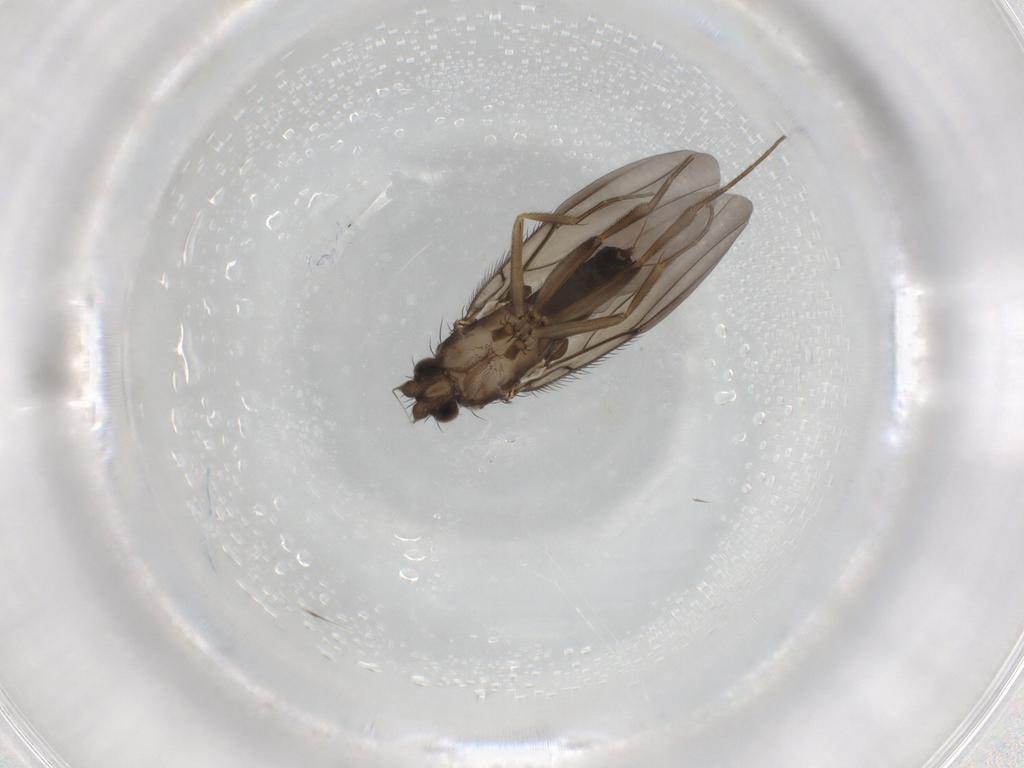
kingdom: Animalia
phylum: Arthropoda
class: Insecta
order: Diptera
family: Phoridae
